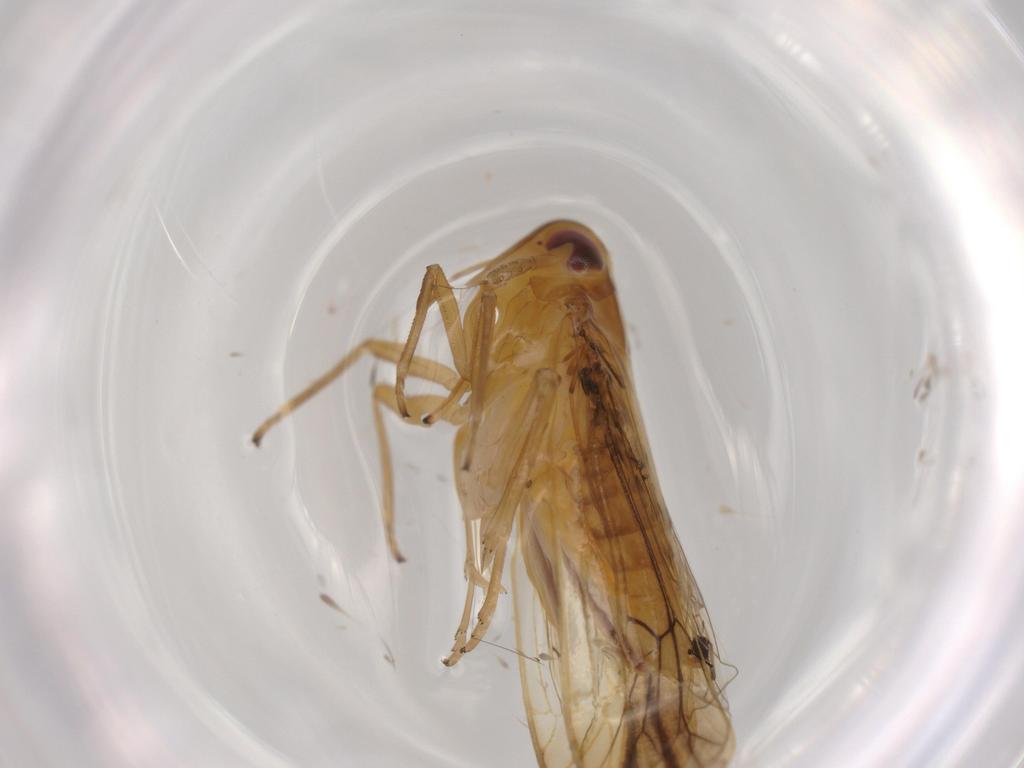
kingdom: Animalia
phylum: Arthropoda
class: Insecta
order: Hemiptera
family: Delphacidae
